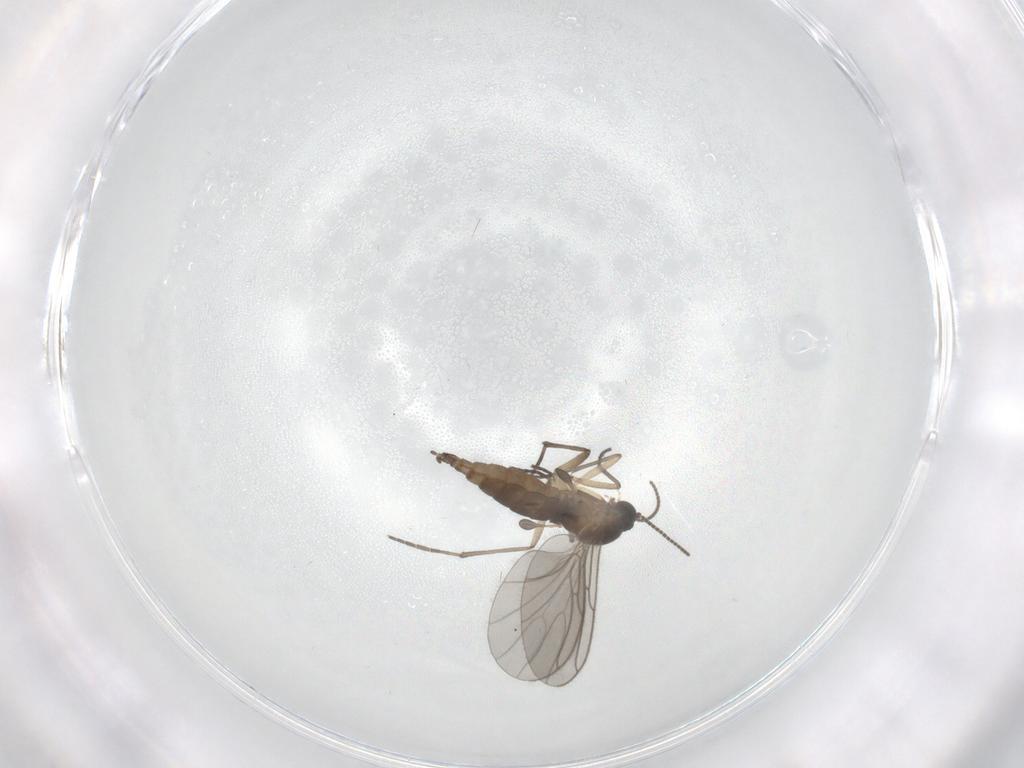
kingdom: Animalia
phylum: Arthropoda
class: Insecta
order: Diptera
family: Sciaridae
